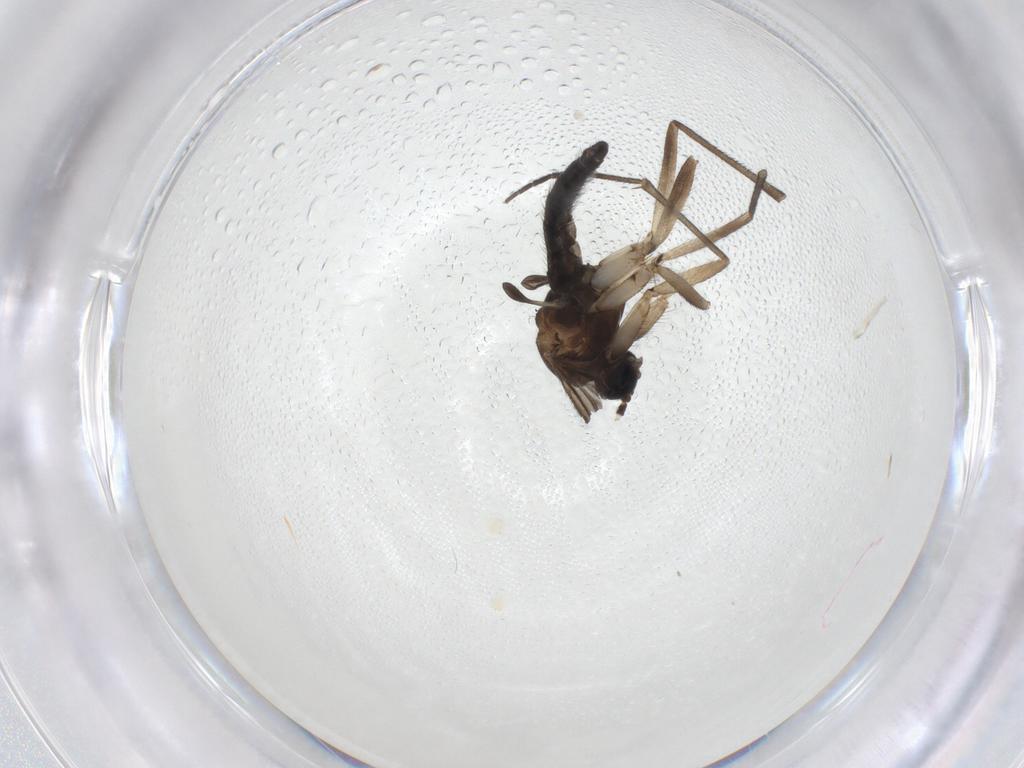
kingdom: Animalia
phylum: Arthropoda
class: Insecta
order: Diptera
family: Sciaridae
